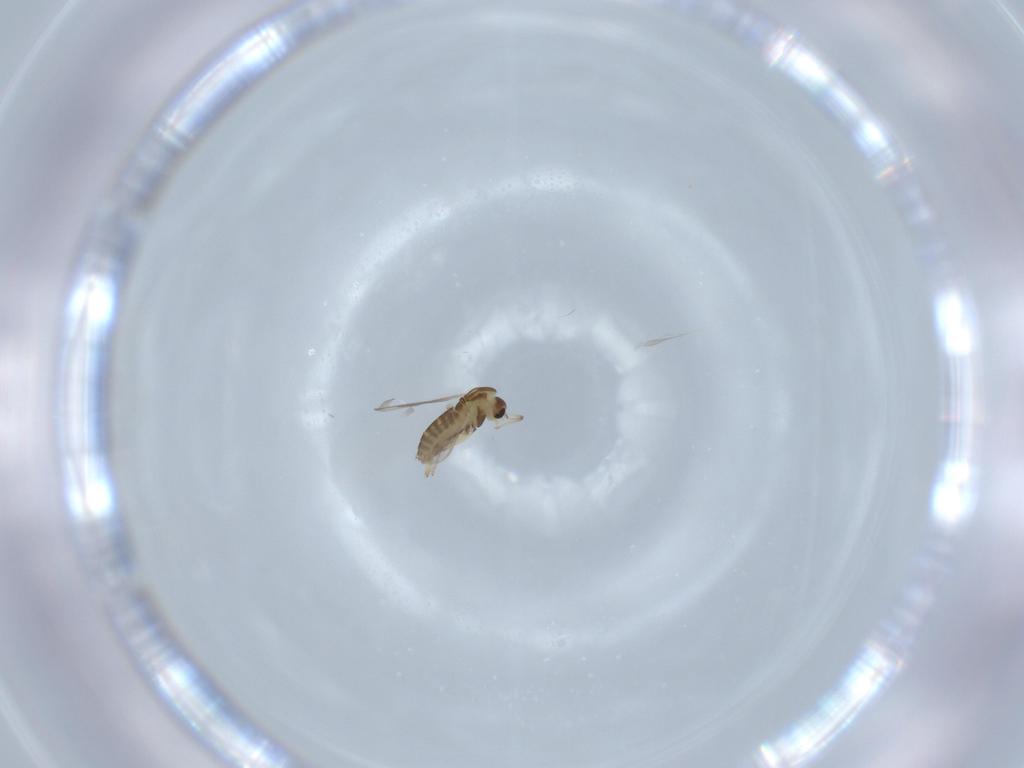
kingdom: Animalia
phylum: Arthropoda
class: Insecta
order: Diptera
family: Chironomidae
